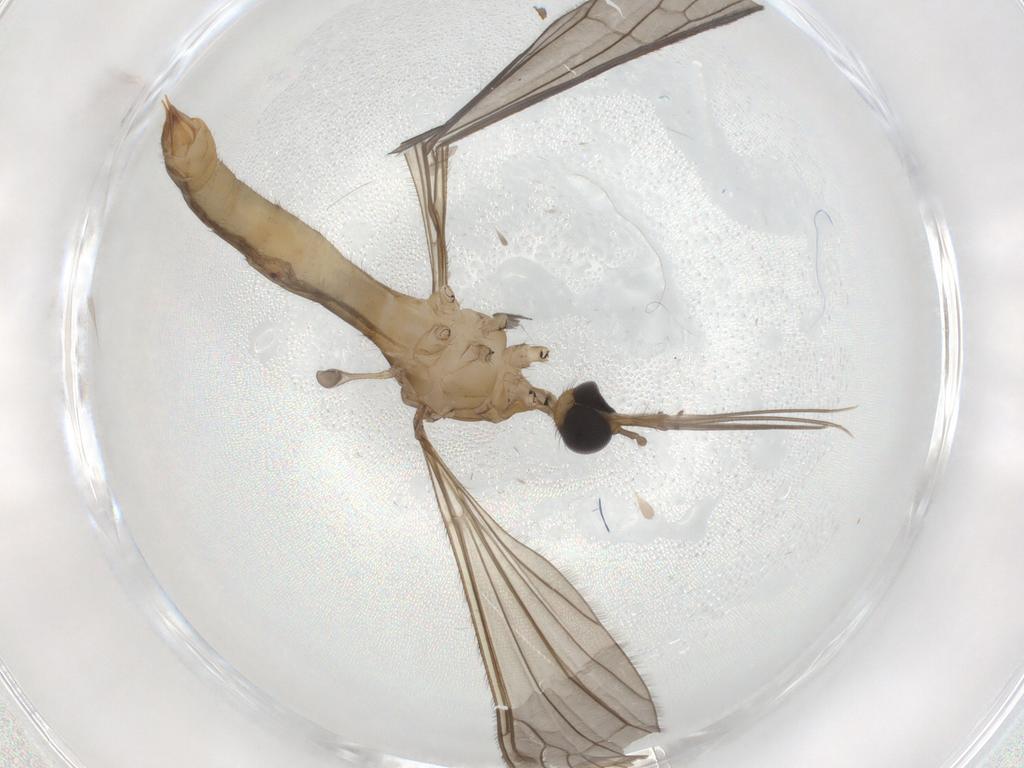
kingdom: Animalia
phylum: Arthropoda
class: Insecta
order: Diptera
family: Limoniidae
